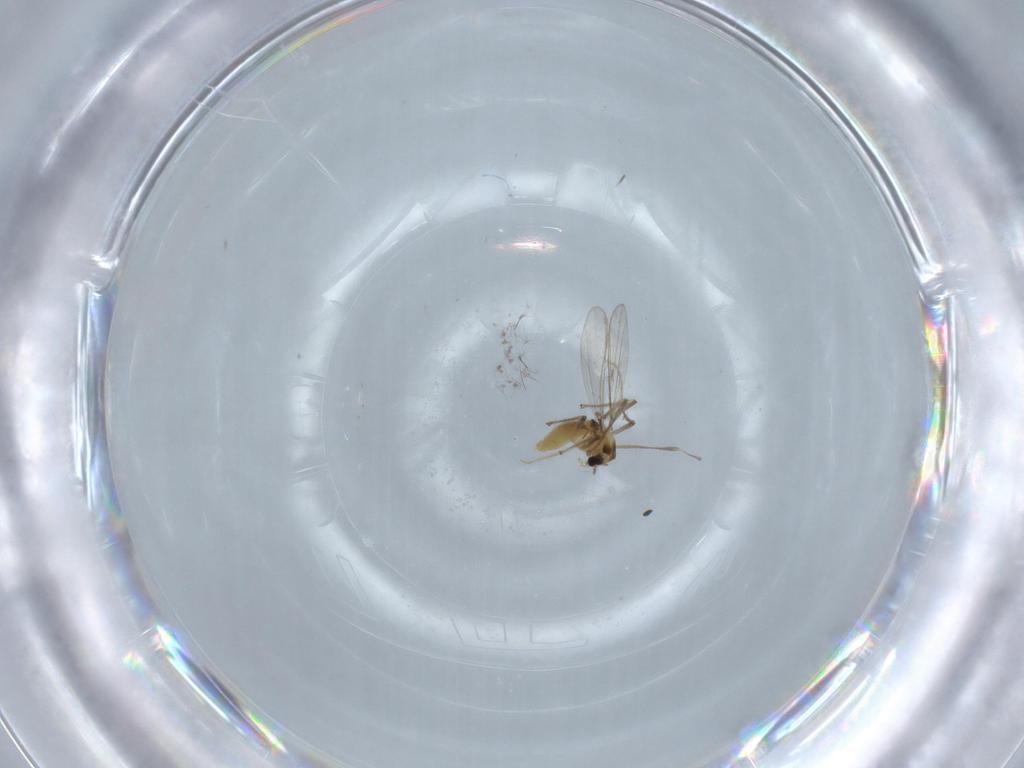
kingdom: Animalia
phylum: Arthropoda
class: Insecta
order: Diptera
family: Chironomidae
